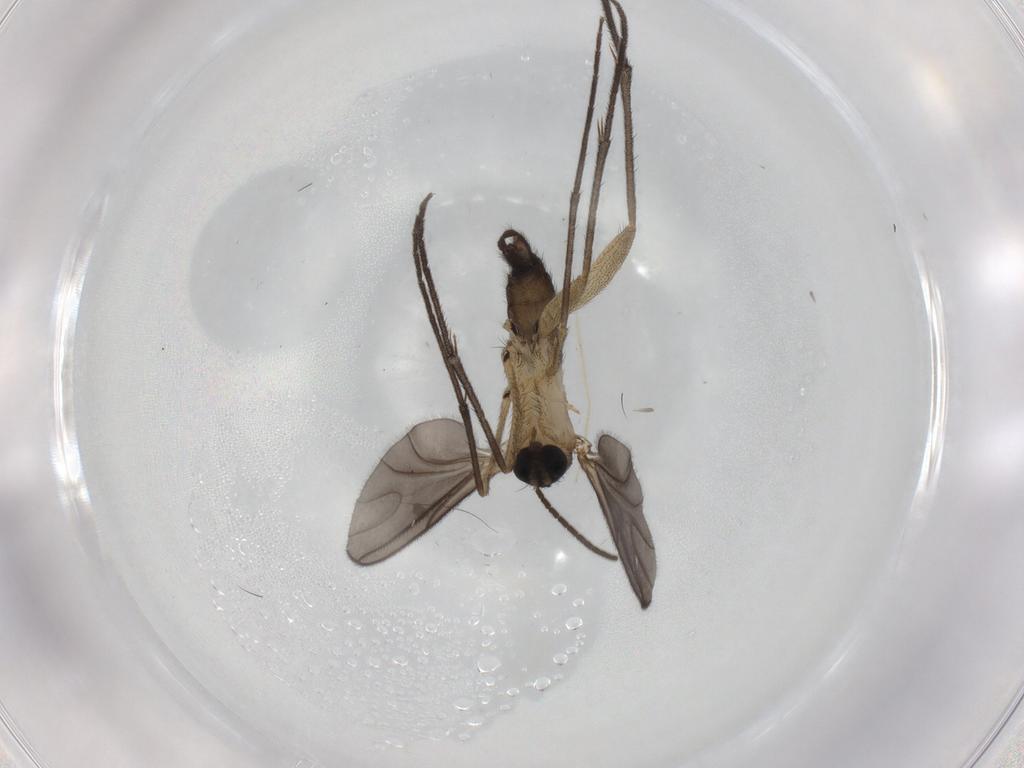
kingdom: Animalia
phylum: Arthropoda
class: Insecta
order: Diptera
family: Sciaridae
